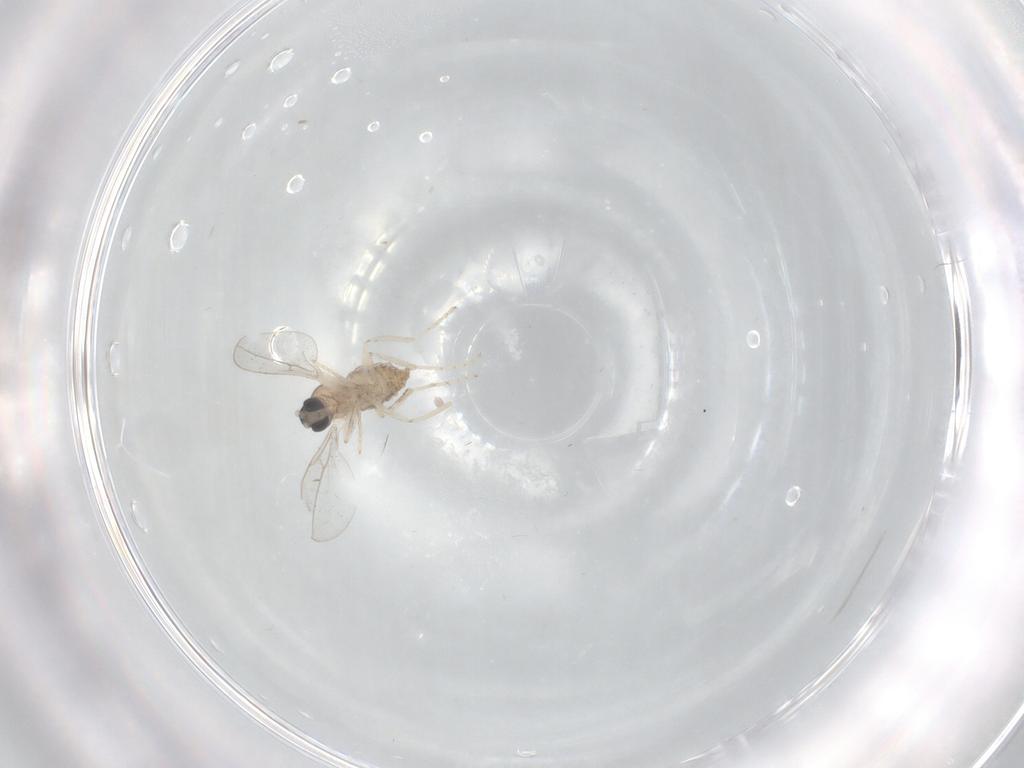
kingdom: Animalia
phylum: Arthropoda
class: Insecta
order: Diptera
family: Cecidomyiidae
